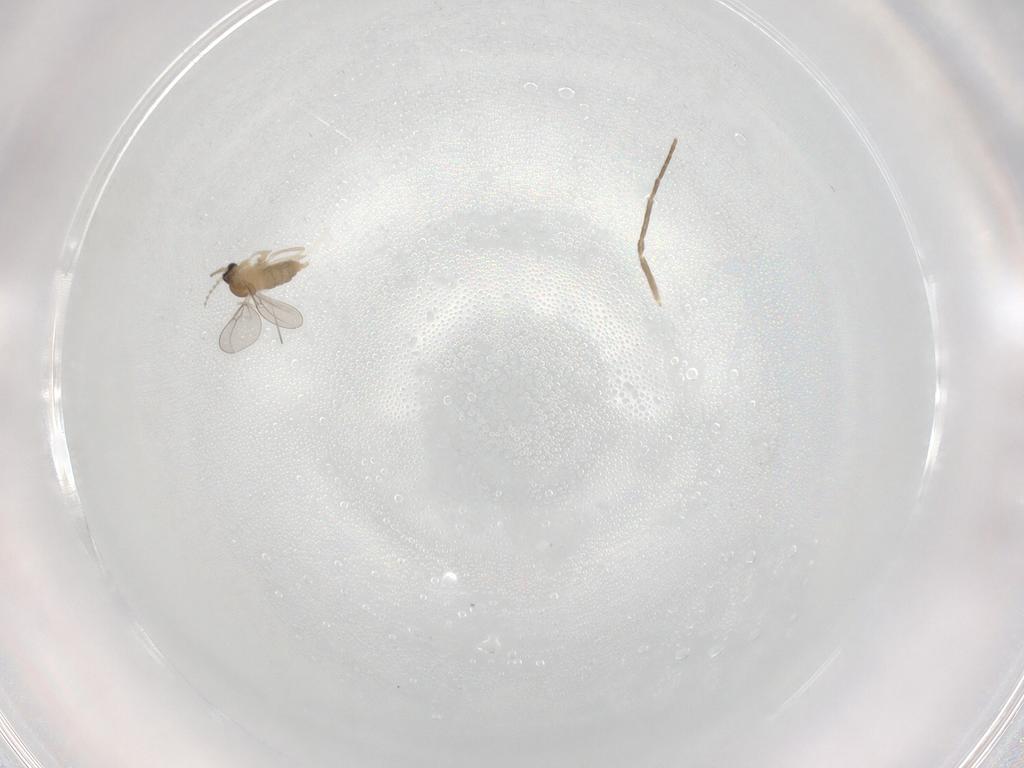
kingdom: Animalia
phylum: Arthropoda
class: Insecta
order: Diptera
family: Cecidomyiidae
